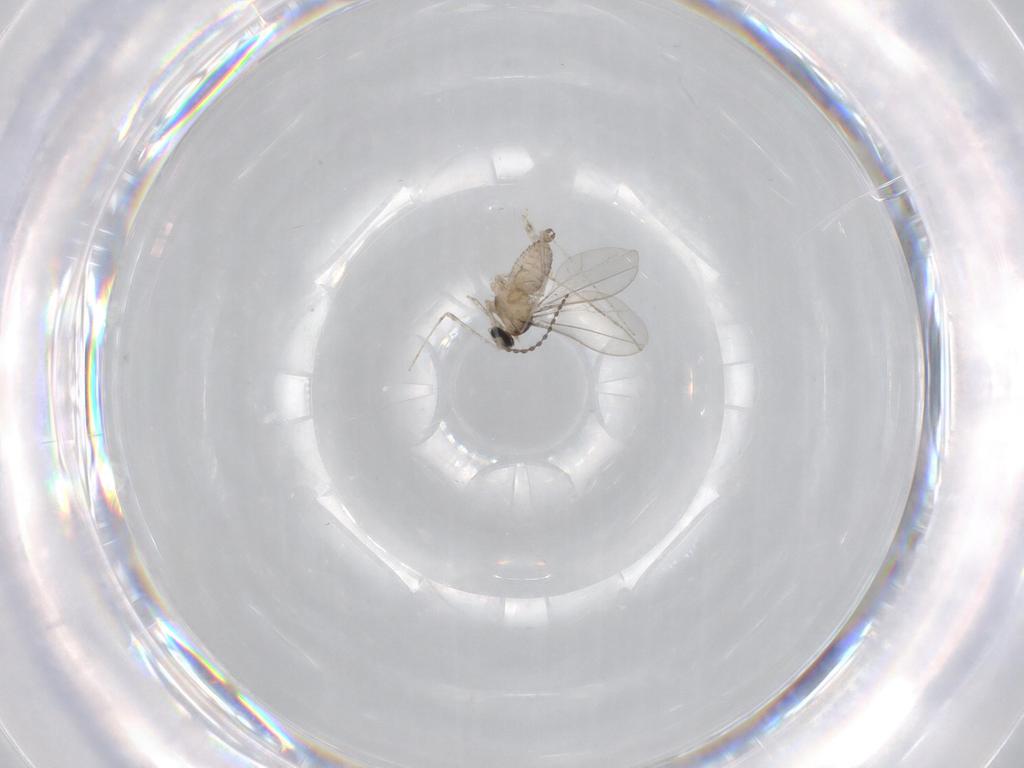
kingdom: Animalia
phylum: Arthropoda
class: Insecta
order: Diptera
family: Cecidomyiidae
